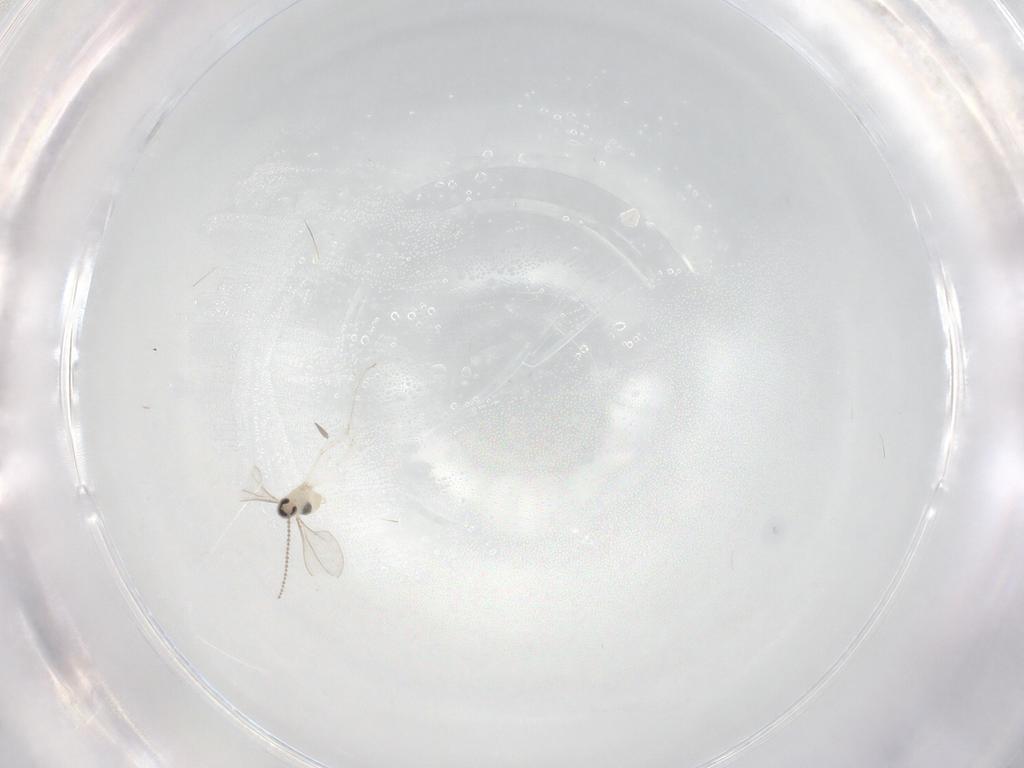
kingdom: Animalia
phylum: Arthropoda
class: Insecta
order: Diptera
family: Cecidomyiidae
